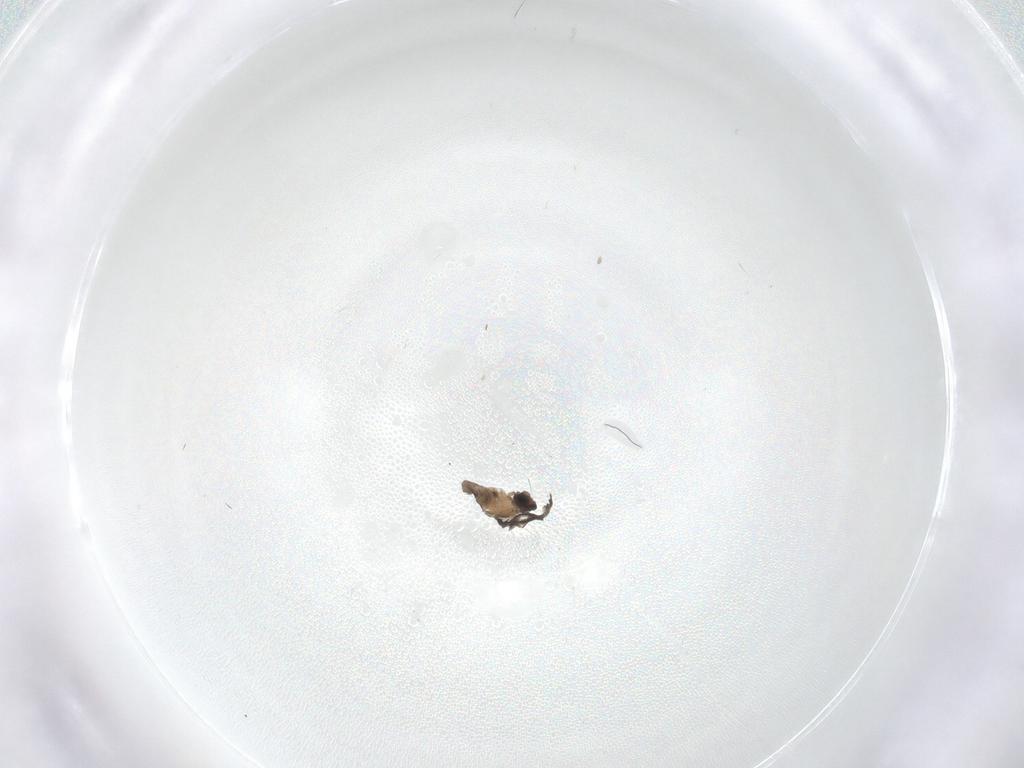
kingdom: Animalia
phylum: Arthropoda
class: Insecta
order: Diptera
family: Cecidomyiidae
